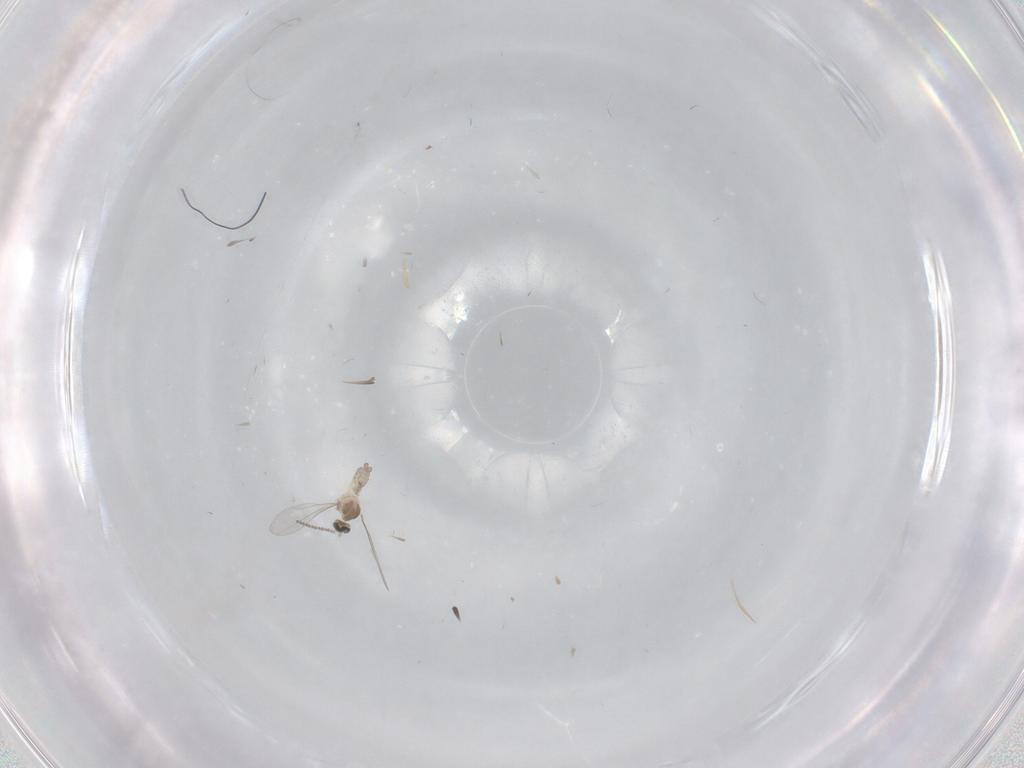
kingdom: Animalia
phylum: Arthropoda
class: Insecta
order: Diptera
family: Cecidomyiidae
